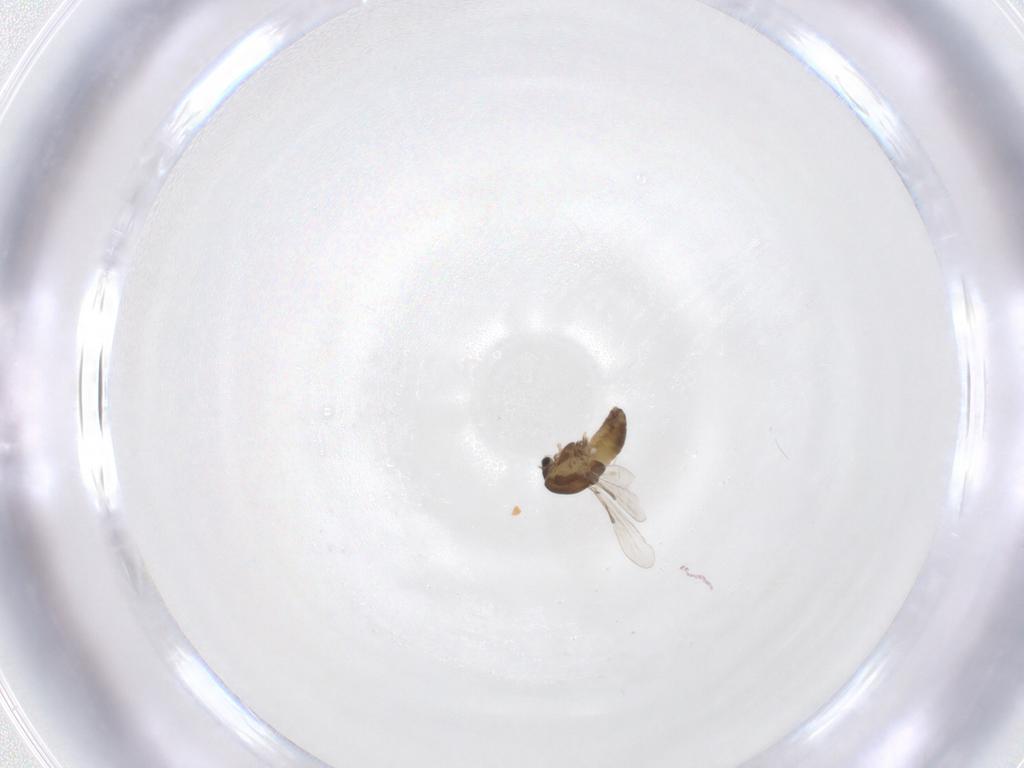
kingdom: Animalia
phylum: Arthropoda
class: Insecta
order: Diptera
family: Chironomidae
